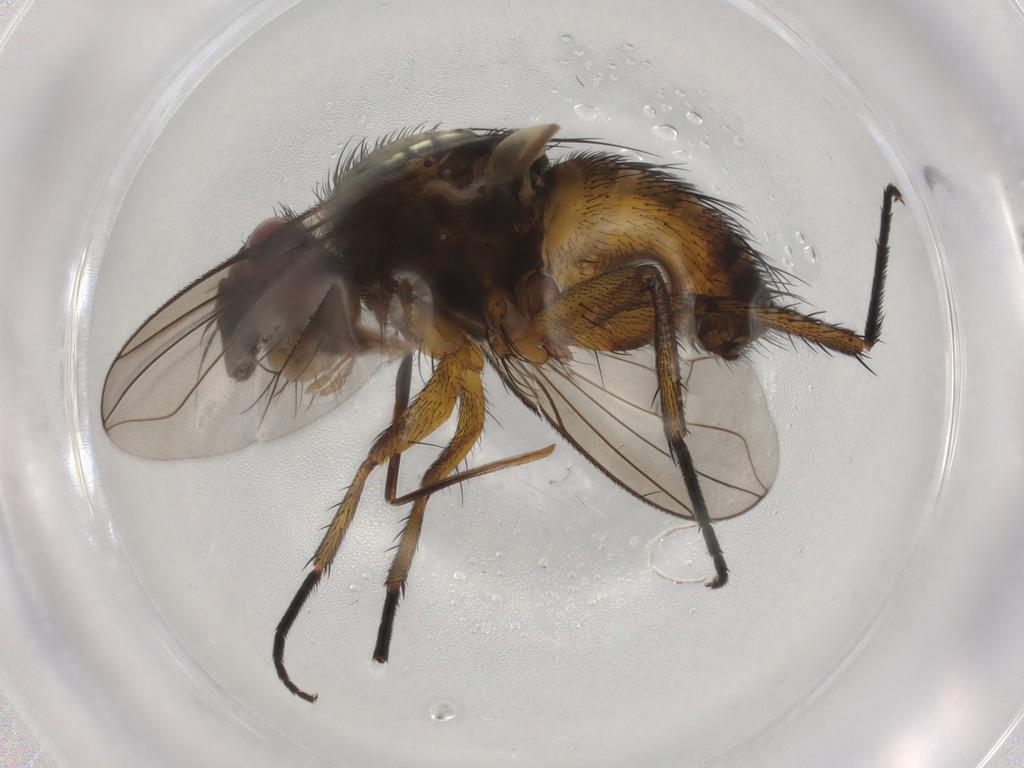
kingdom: Animalia
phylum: Arthropoda
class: Insecta
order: Diptera
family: Tachinidae
